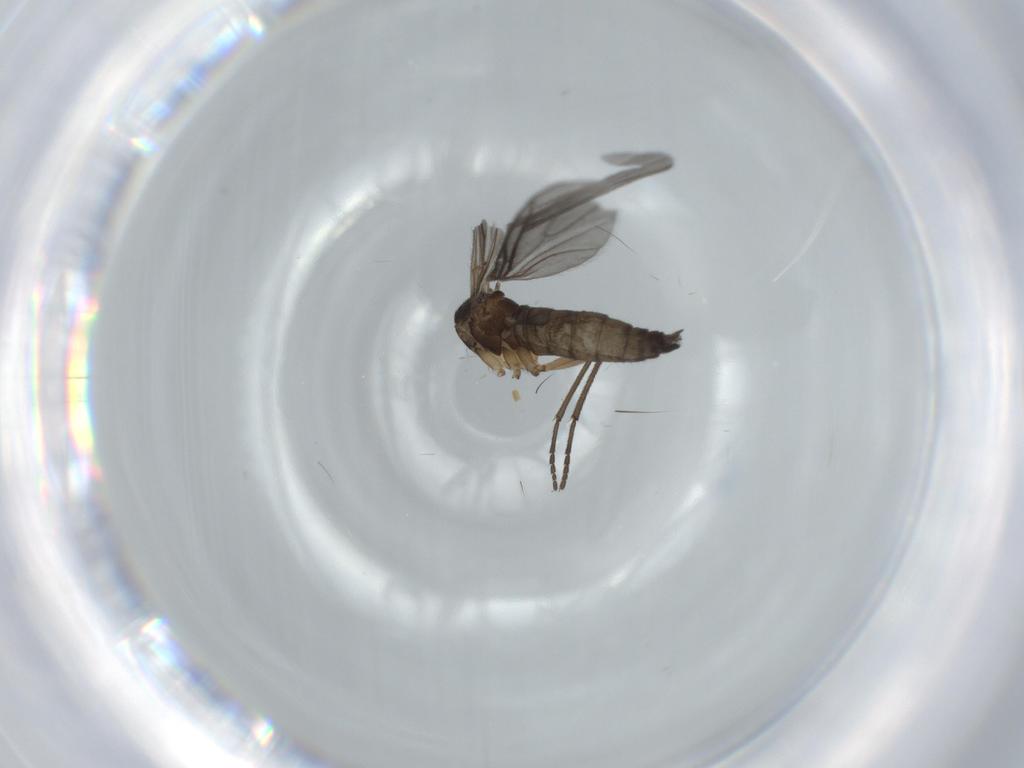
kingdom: Animalia
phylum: Arthropoda
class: Insecta
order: Diptera
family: Sciaridae
